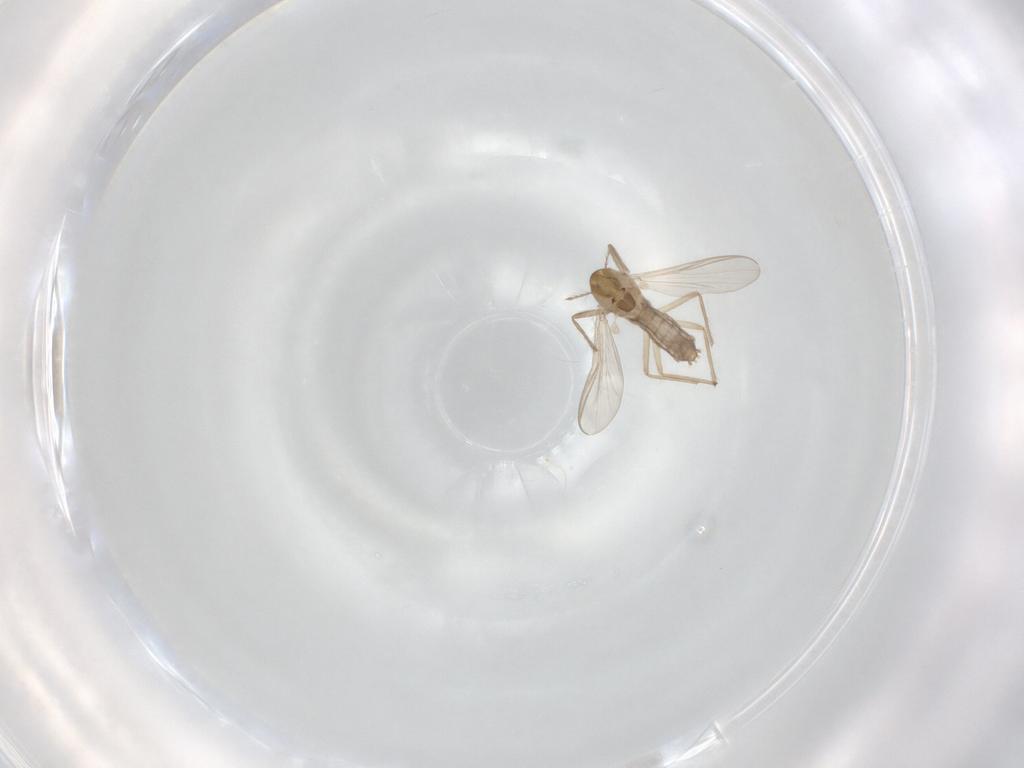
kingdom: Animalia
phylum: Arthropoda
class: Insecta
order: Diptera
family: Chironomidae
